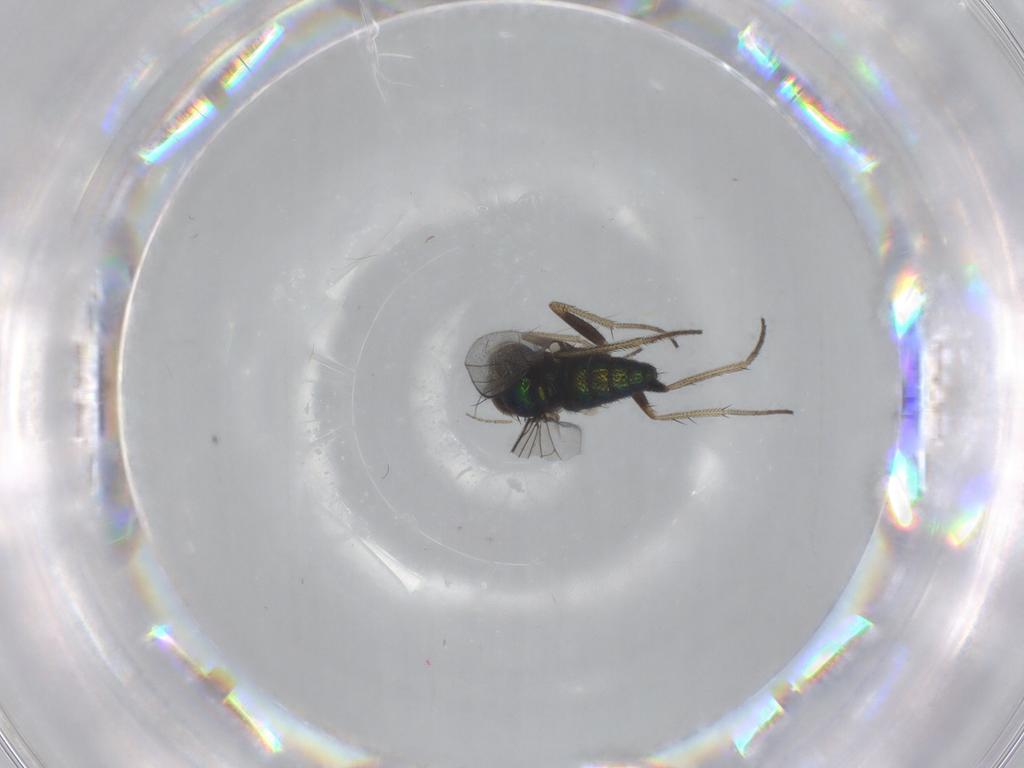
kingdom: Animalia
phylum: Arthropoda
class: Insecta
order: Diptera
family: Chironomidae
